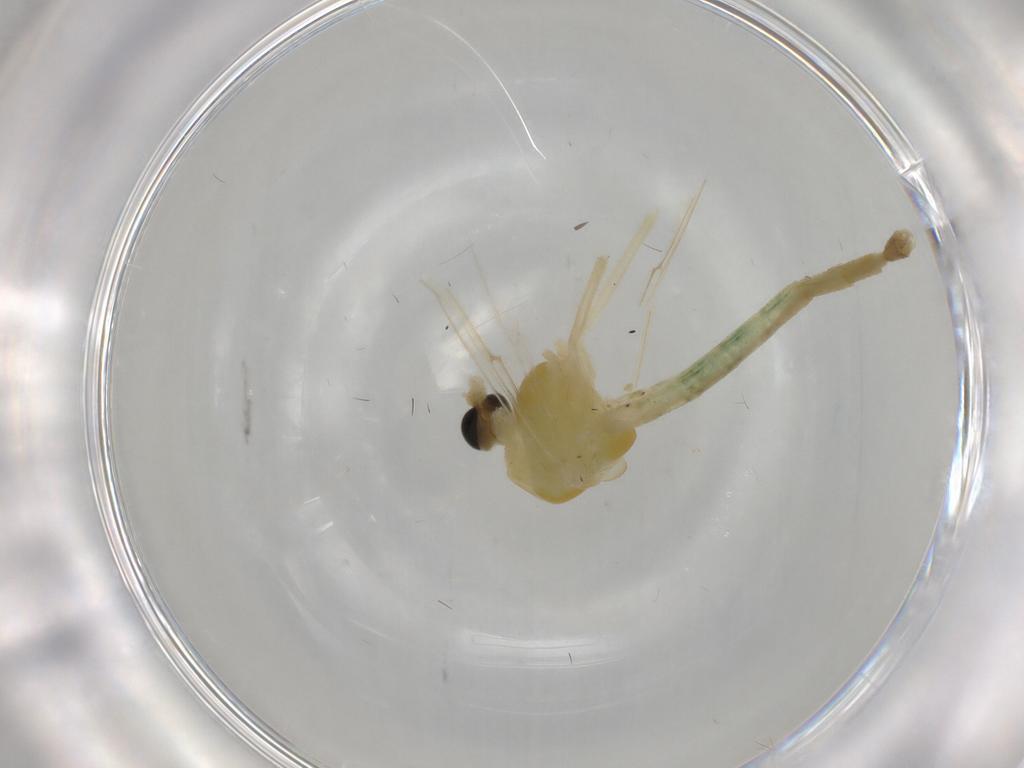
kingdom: Animalia
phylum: Arthropoda
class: Insecta
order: Diptera
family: Chironomidae
